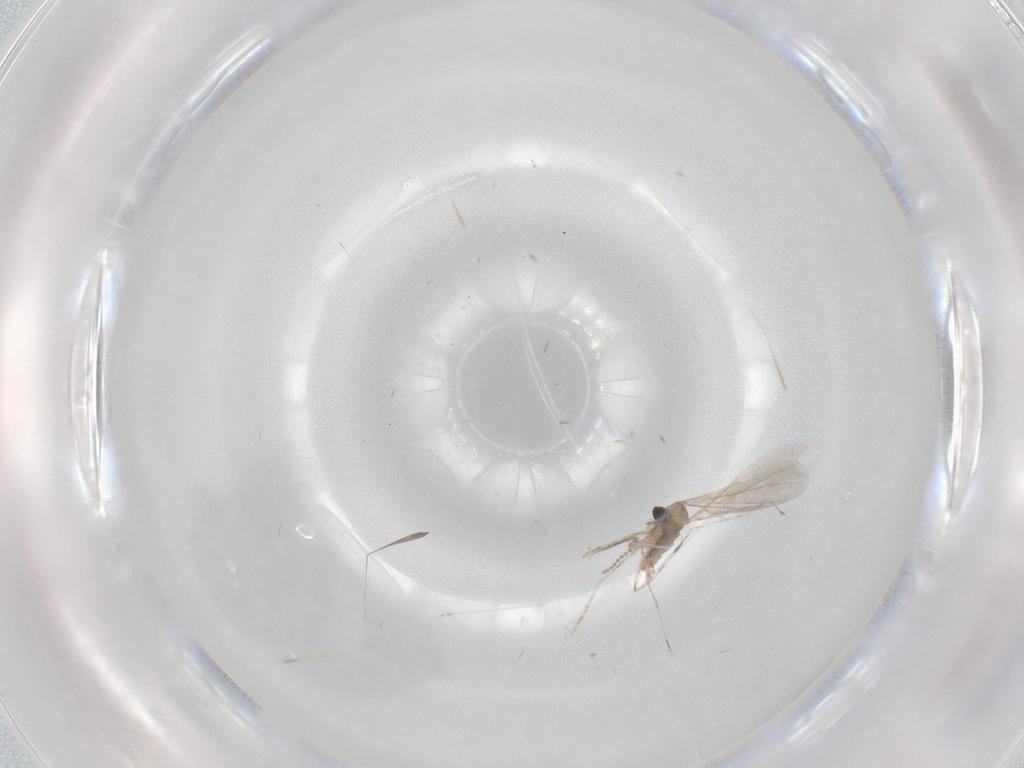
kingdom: Animalia
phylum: Arthropoda
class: Insecta
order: Diptera
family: Cecidomyiidae
